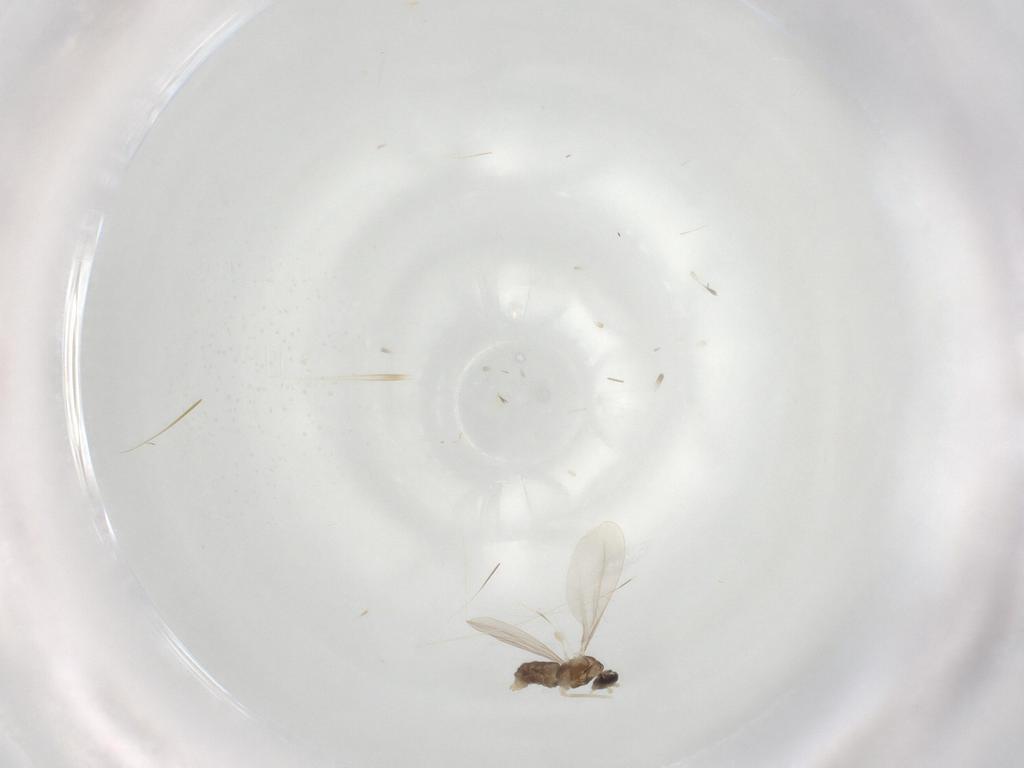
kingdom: Animalia
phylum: Arthropoda
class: Insecta
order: Diptera
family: Cecidomyiidae
